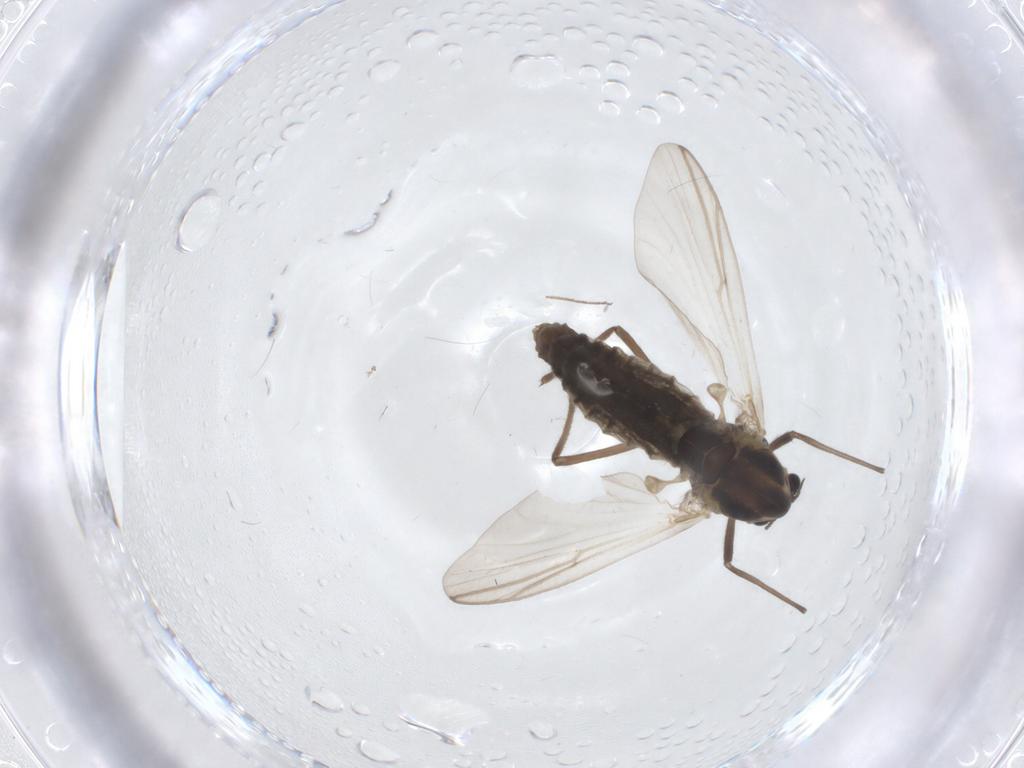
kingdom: Animalia
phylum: Arthropoda
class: Insecta
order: Diptera
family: Chironomidae
